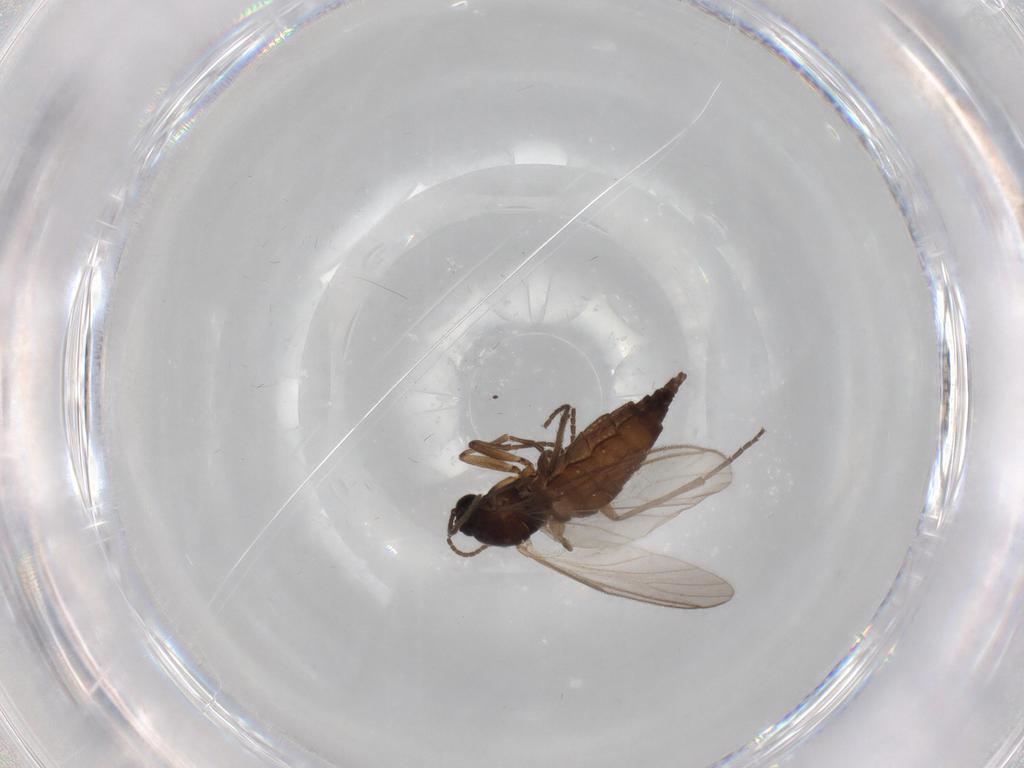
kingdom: Animalia
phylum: Arthropoda
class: Insecta
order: Diptera
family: Sciaridae
